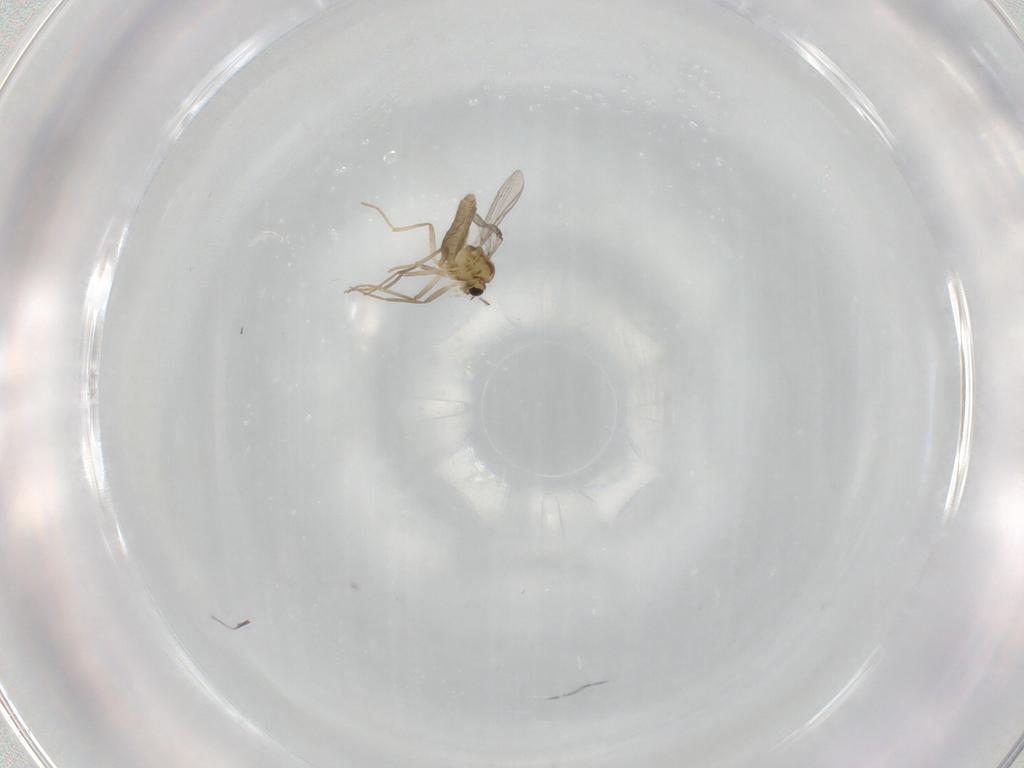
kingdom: Animalia
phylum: Arthropoda
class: Insecta
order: Diptera
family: Chironomidae
